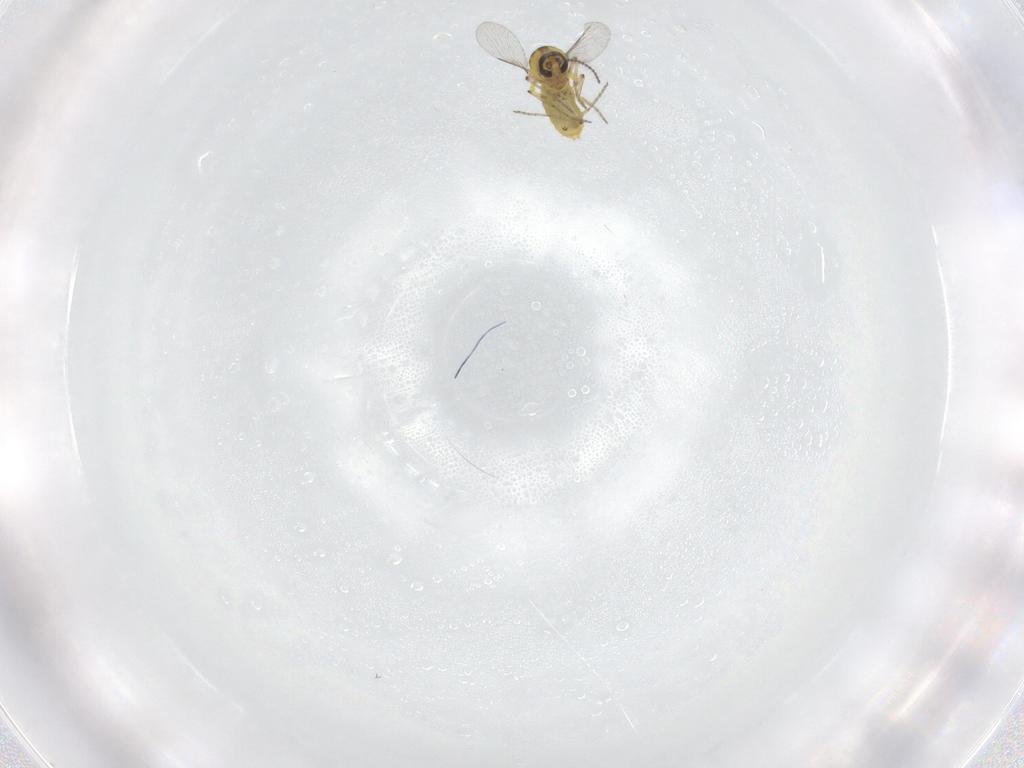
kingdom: Animalia
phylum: Arthropoda
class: Insecta
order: Diptera
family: Ceratopogonidae
